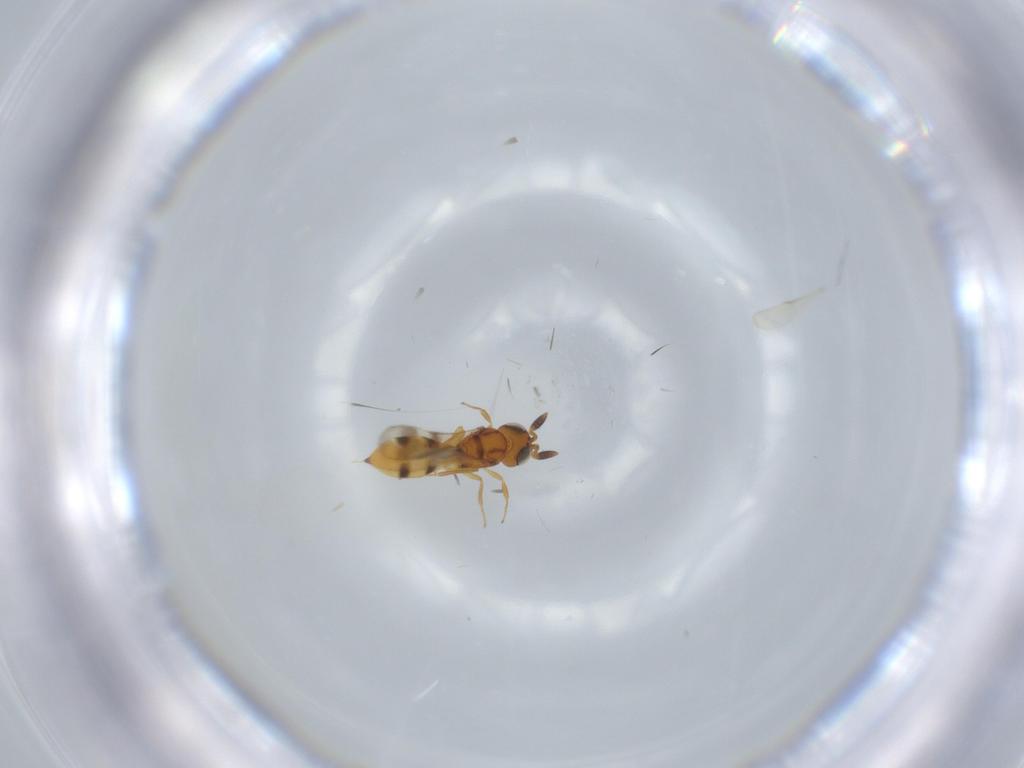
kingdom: Animalia
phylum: Arthropoda
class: Insecta
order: Hymenoptera
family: Scelionidae
